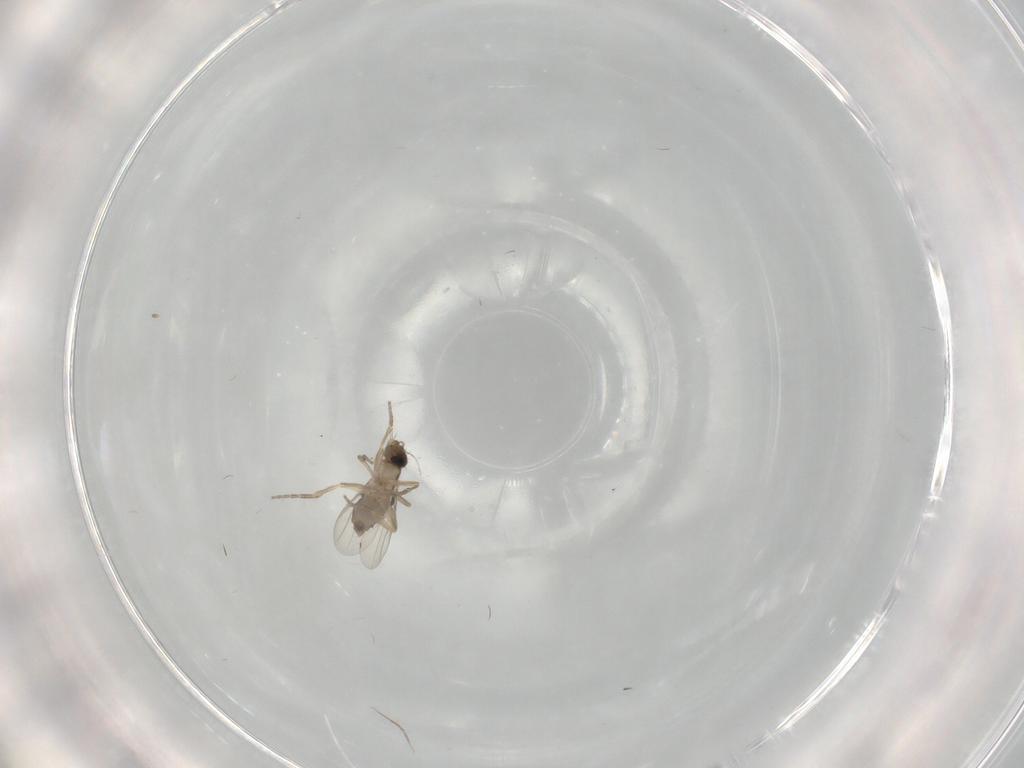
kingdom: Animalia
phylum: Arthropoda
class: Insecta
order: Diptera
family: Phoridae
